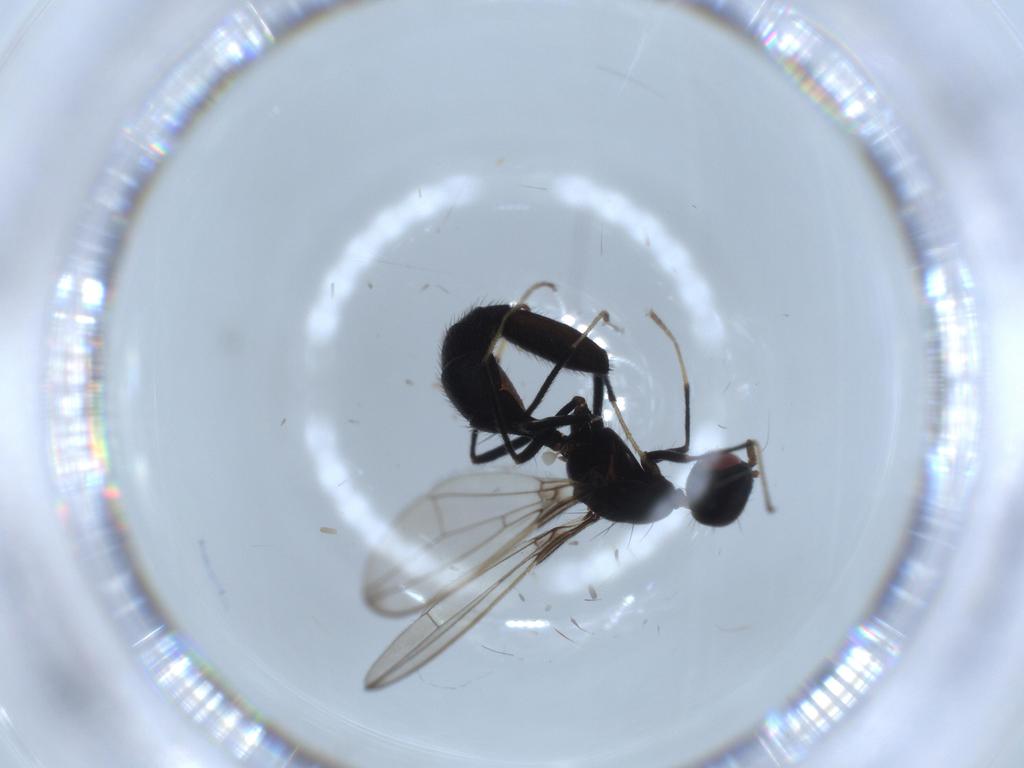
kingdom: Animalia
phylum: Arthropoda
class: Insecta
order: Diptera
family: Richardiidae
